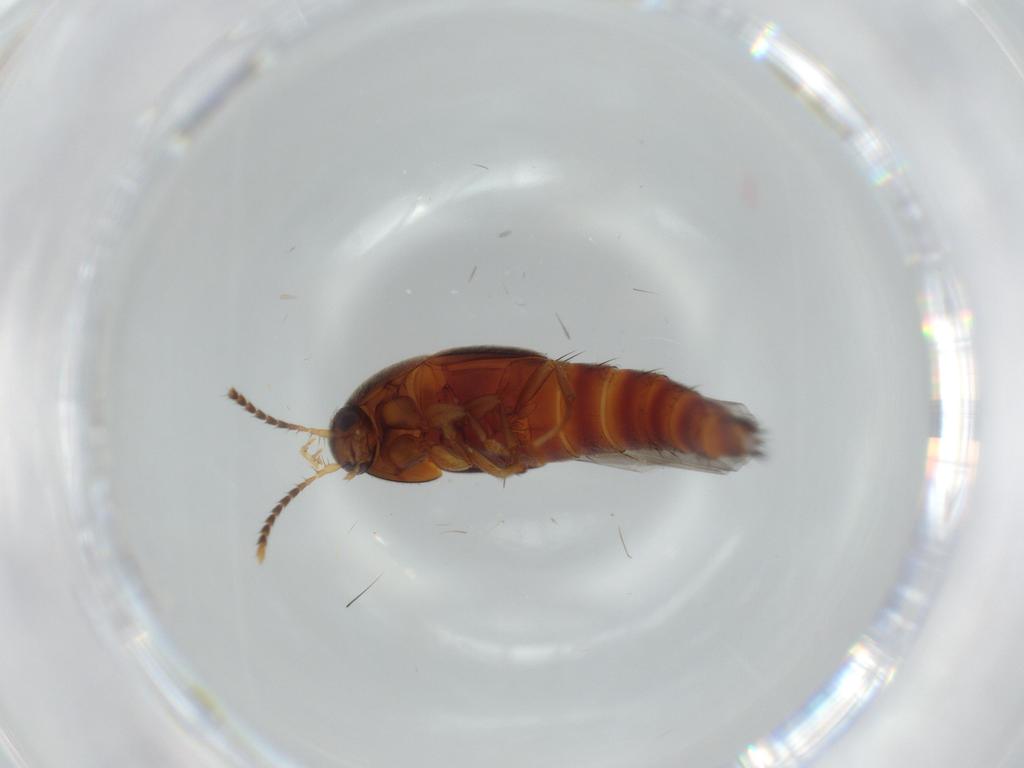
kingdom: Animalia
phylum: Arthropoda
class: Insecta
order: Coleoptera
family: Staphylinidae
